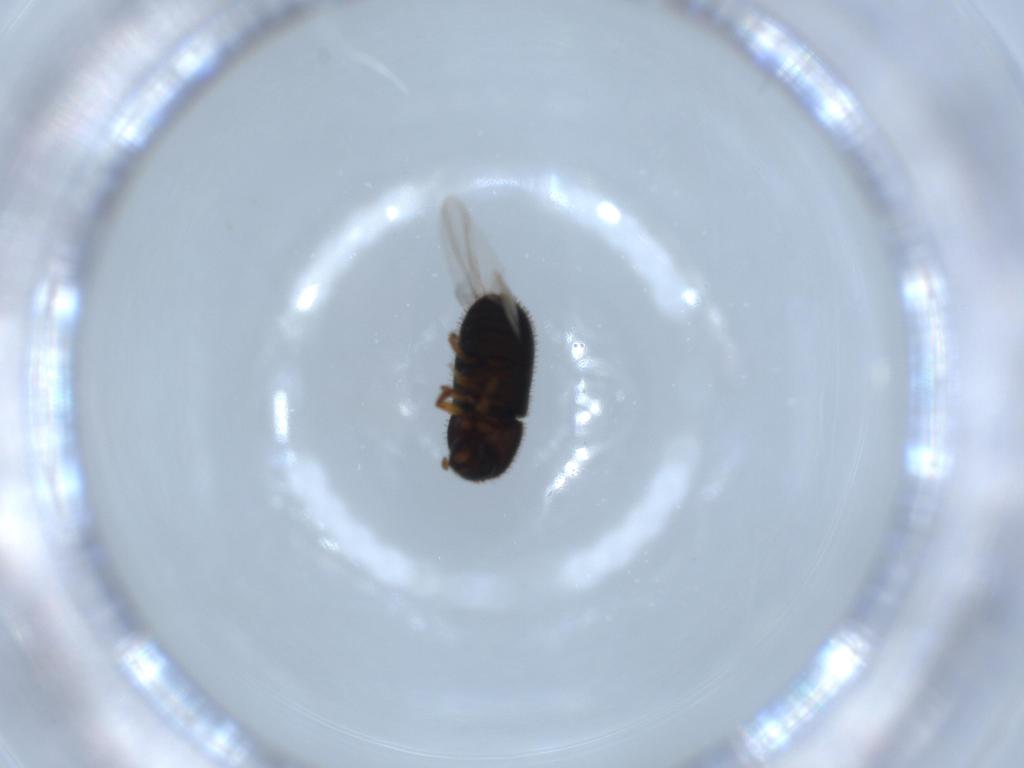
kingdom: Animalia
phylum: Arthropoda
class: Insecta
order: Coleoptera
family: Curculionidae
